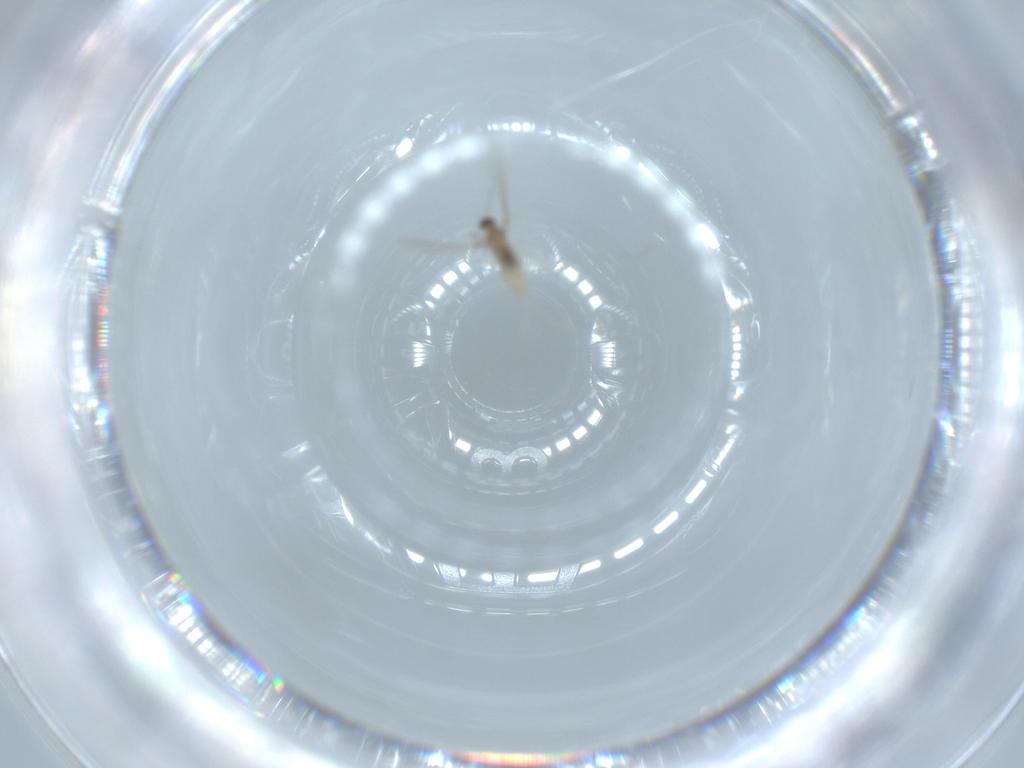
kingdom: Animalia
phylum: Arthropoda
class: Insecta
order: Diptera
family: Cecidomyiidae
